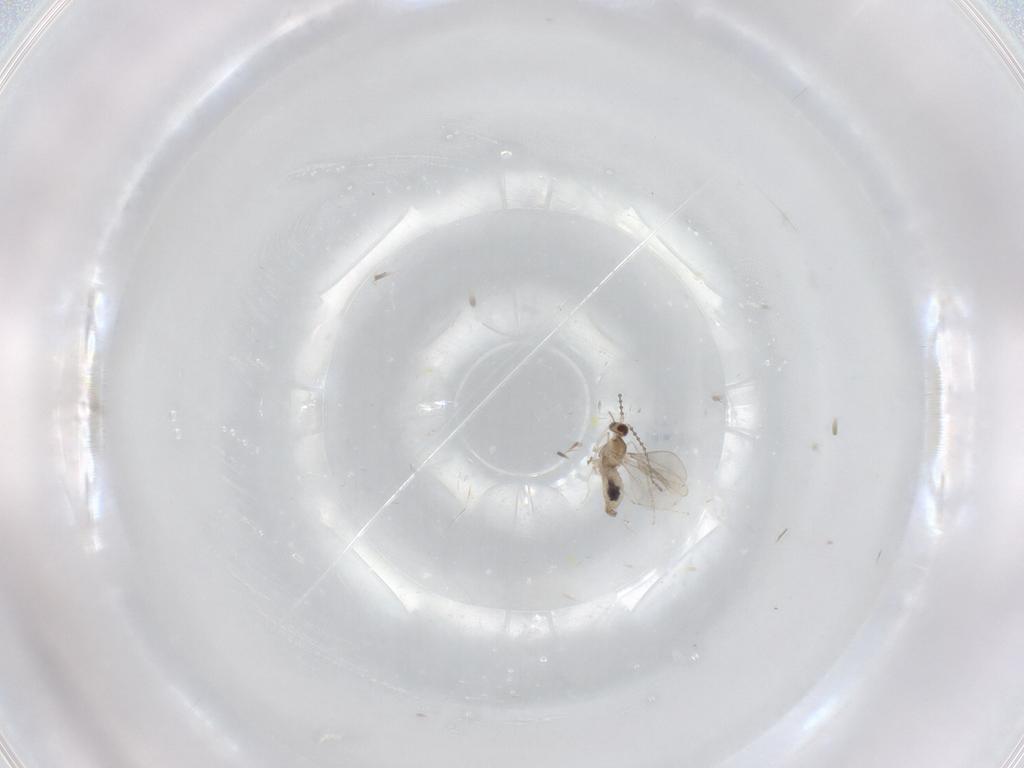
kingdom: Animalia
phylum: Arthropoda
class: Insecta
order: Diptera
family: Cecidomyiidae
